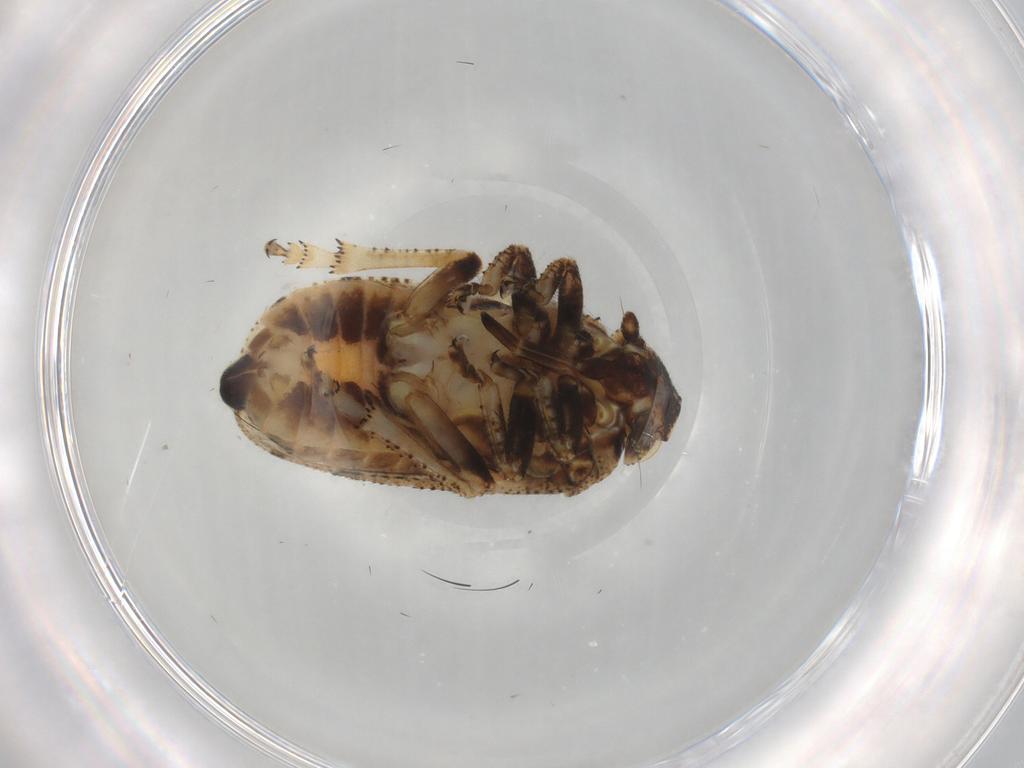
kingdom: Animalia
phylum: Arthropoda
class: Insecta
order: Hemiptera
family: Tettigometridae
